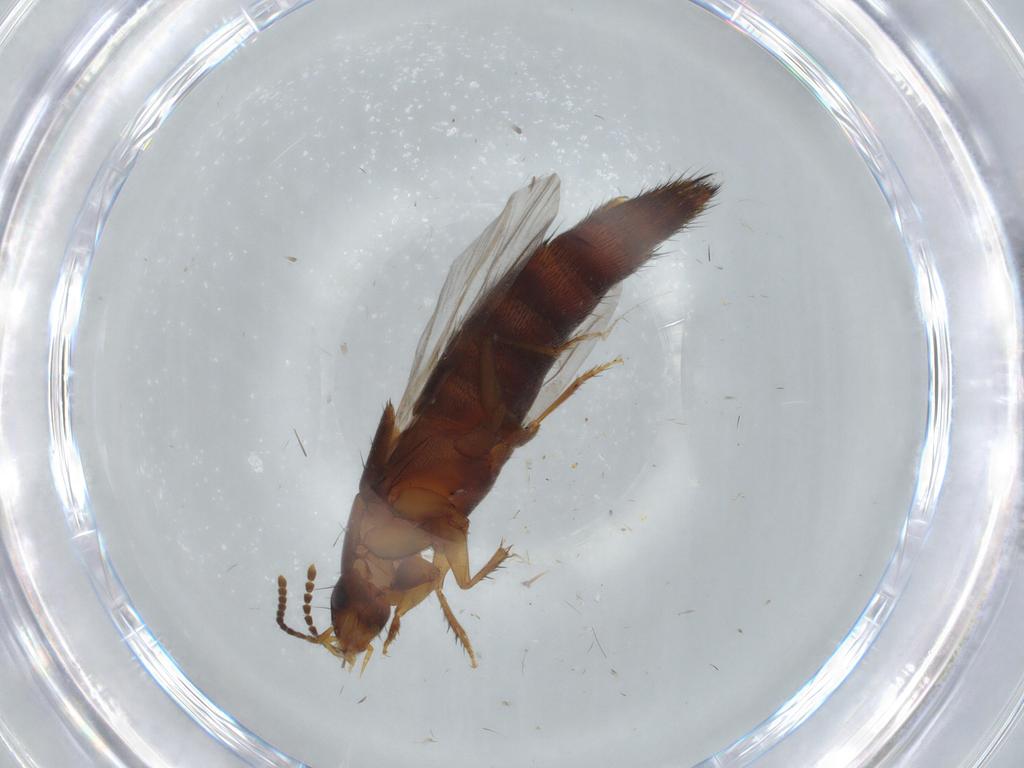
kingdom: Animalia
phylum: Arthropoda
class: Insecta
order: Coleoptera
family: Staphylinidae
